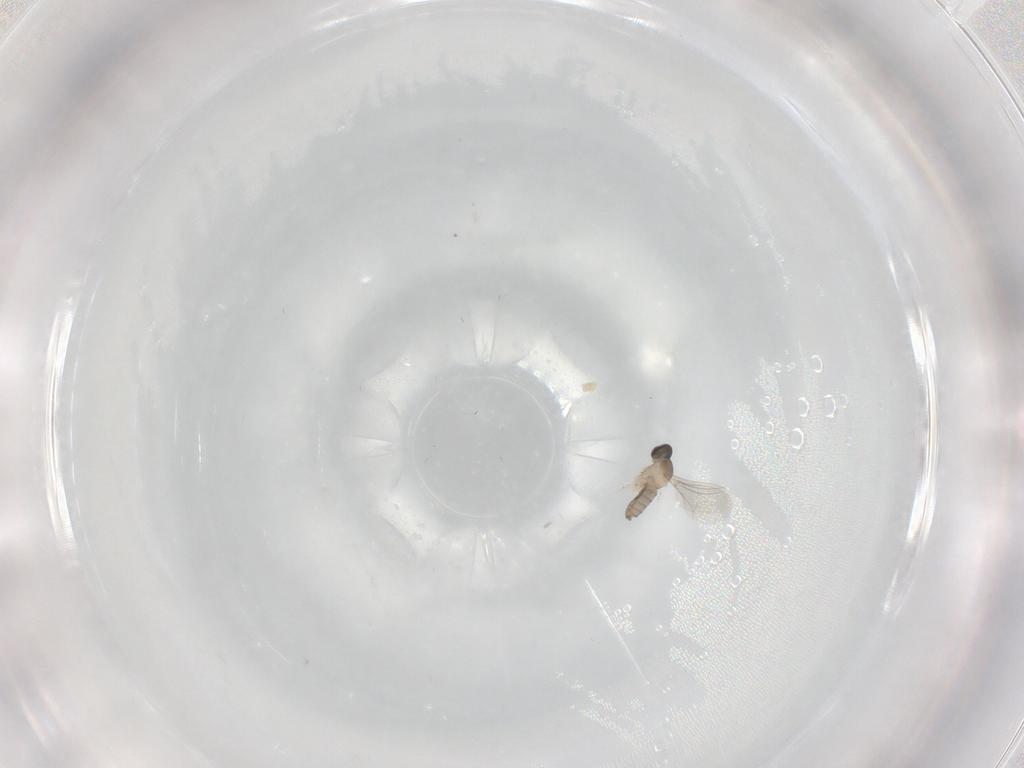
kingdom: Animalia
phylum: Arthropoda
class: Insecta
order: Diptera
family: Cecidomyiidae
